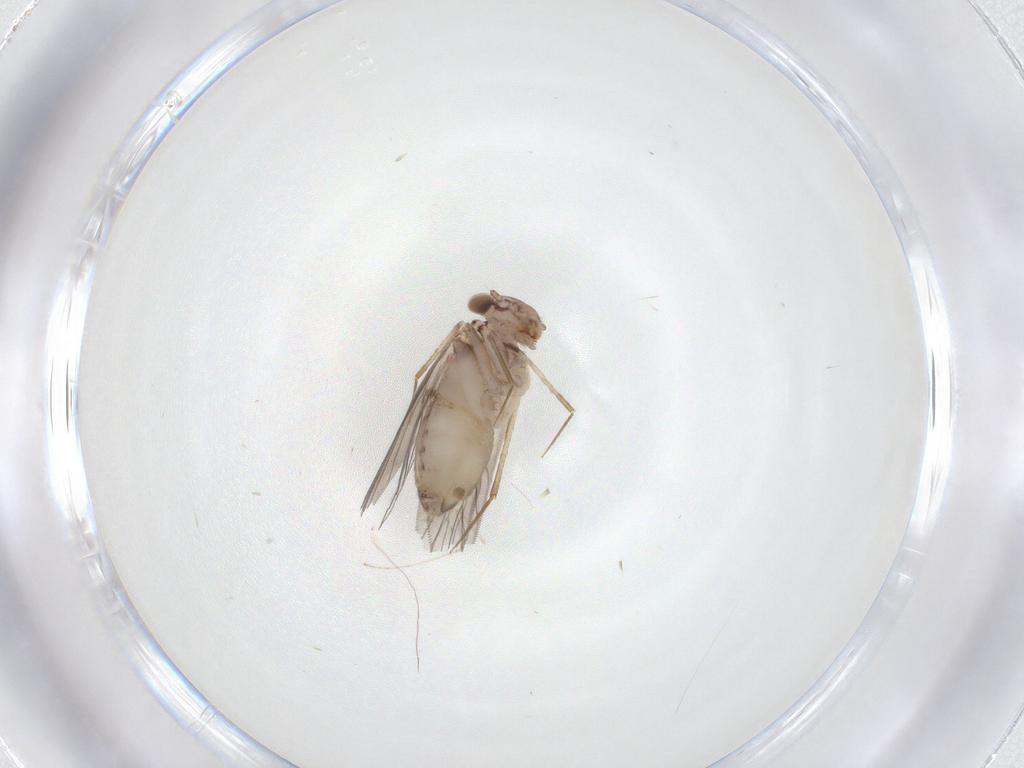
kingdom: Animalia
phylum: Arthropoda
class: Insecta
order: Psocodea
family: Lepidopsocidae
